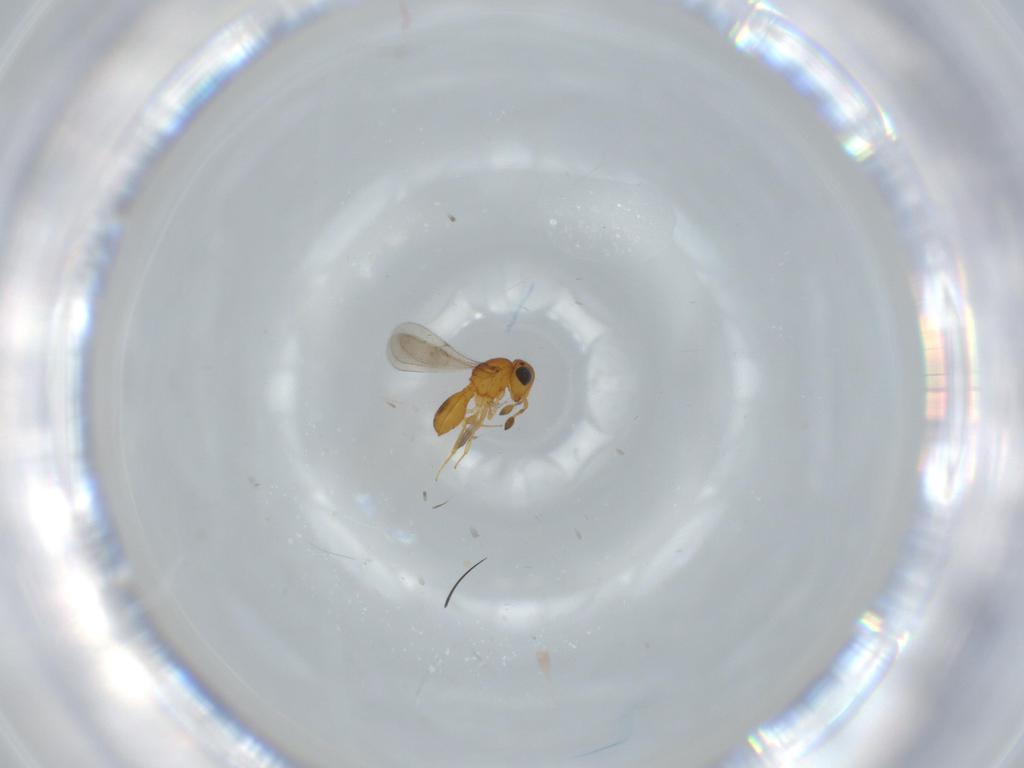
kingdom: Animalia
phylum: Arthropoda
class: Insecta
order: Hymenoptera
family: Scelionidae
